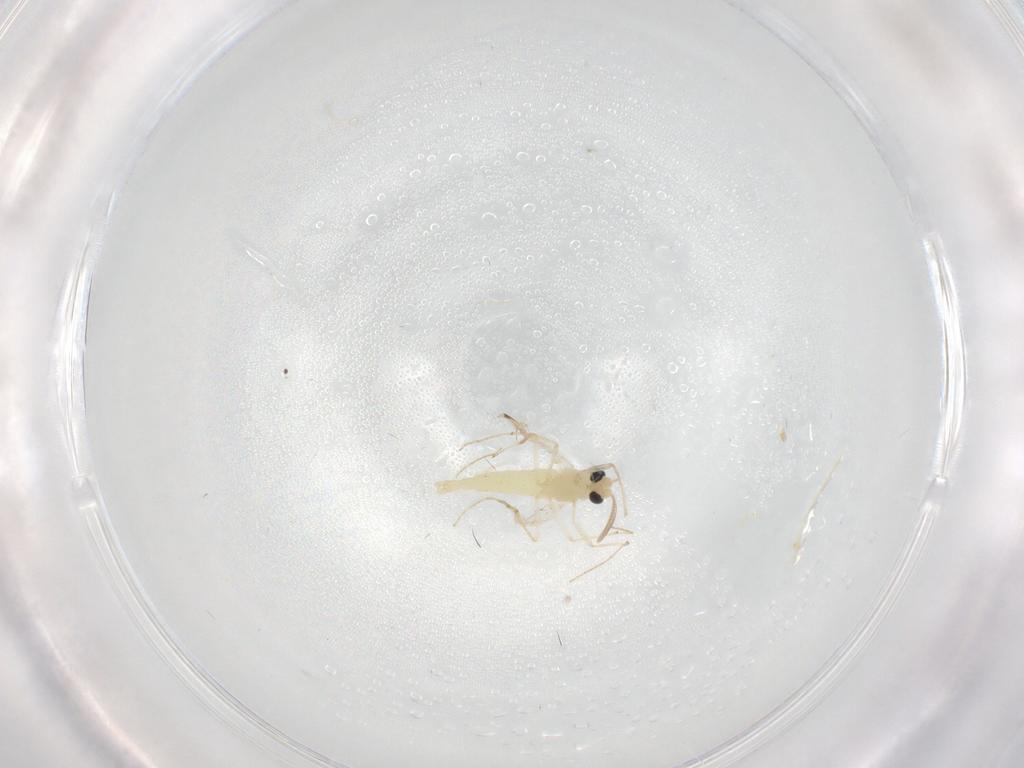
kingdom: Animalia
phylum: Arthropoda
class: Insecta
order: Diptera
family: Chironomidae
